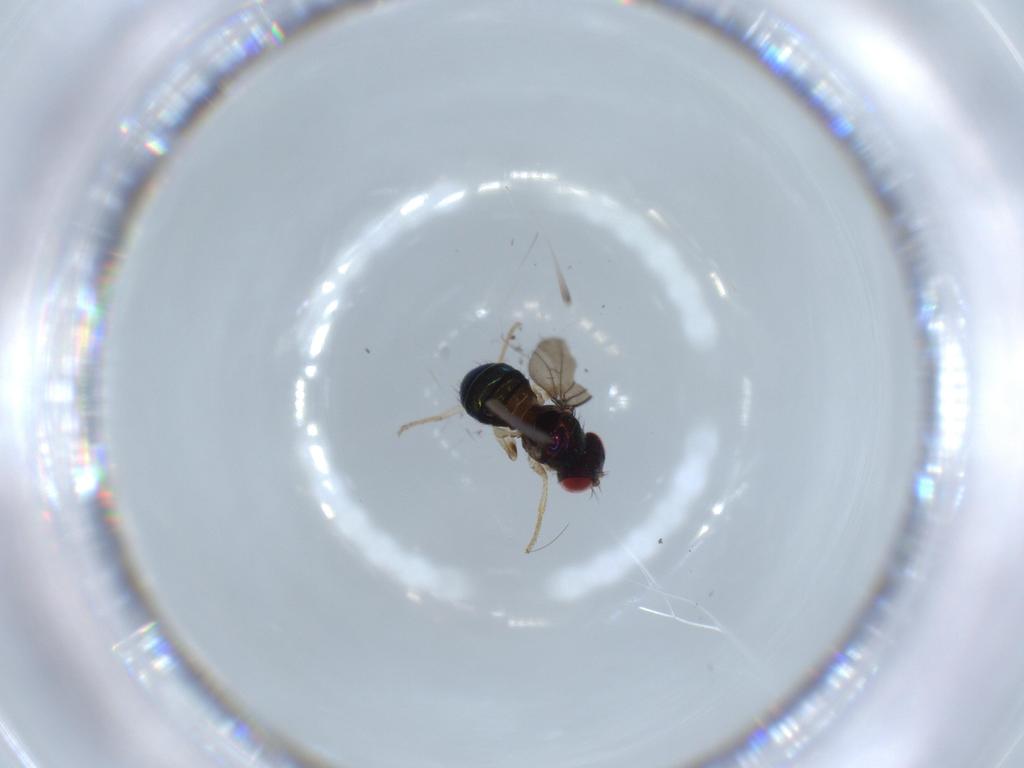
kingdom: Animalia
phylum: Arthropoda
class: Insecta
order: Diptera
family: Drosophilidae
